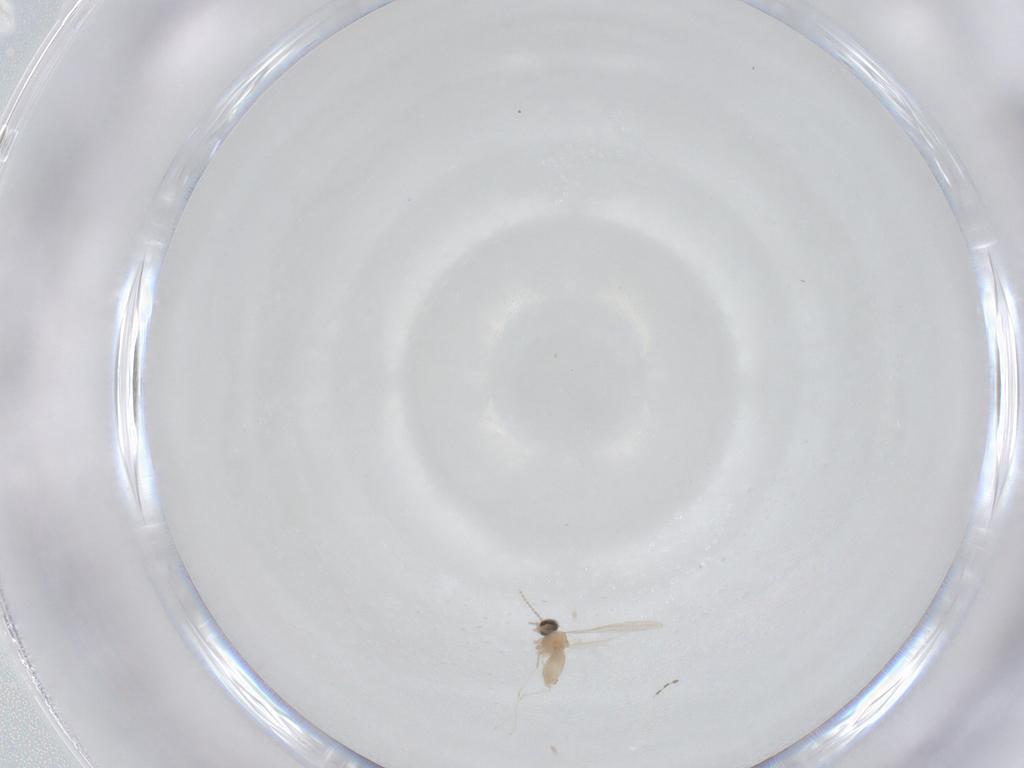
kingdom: Animalia
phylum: Arthropoda
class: Insecta
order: Diptera
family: Cecidomyiidae
